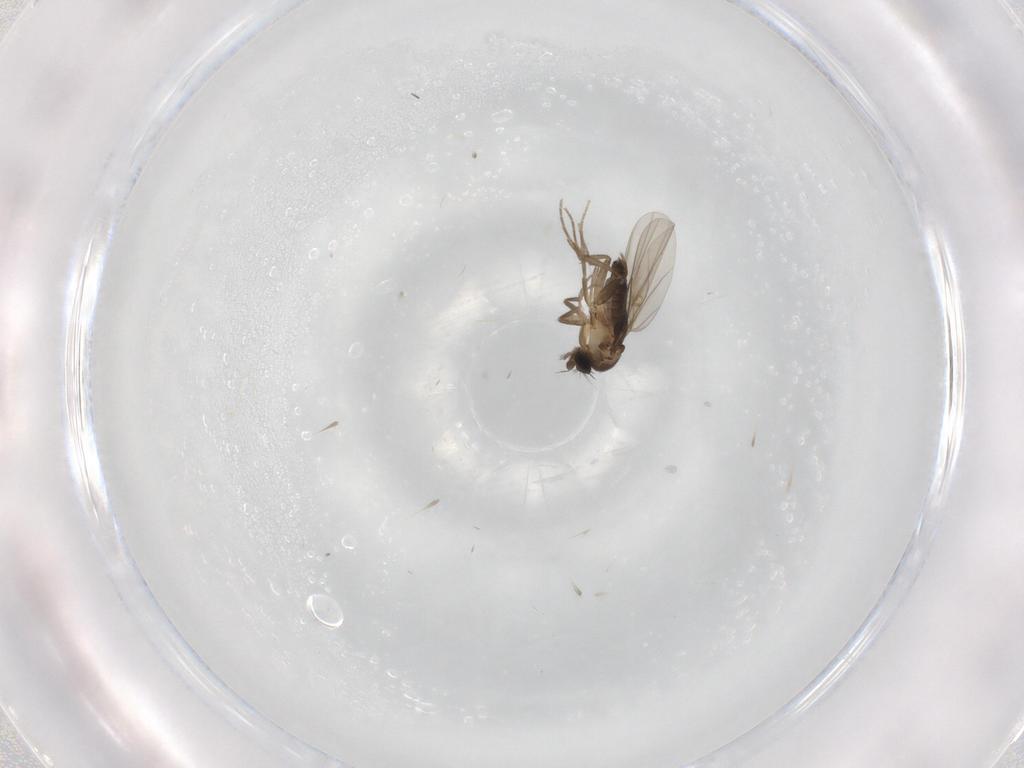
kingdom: Animalia
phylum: Arthropoda
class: Insecta
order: Diptera
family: Phoridae
